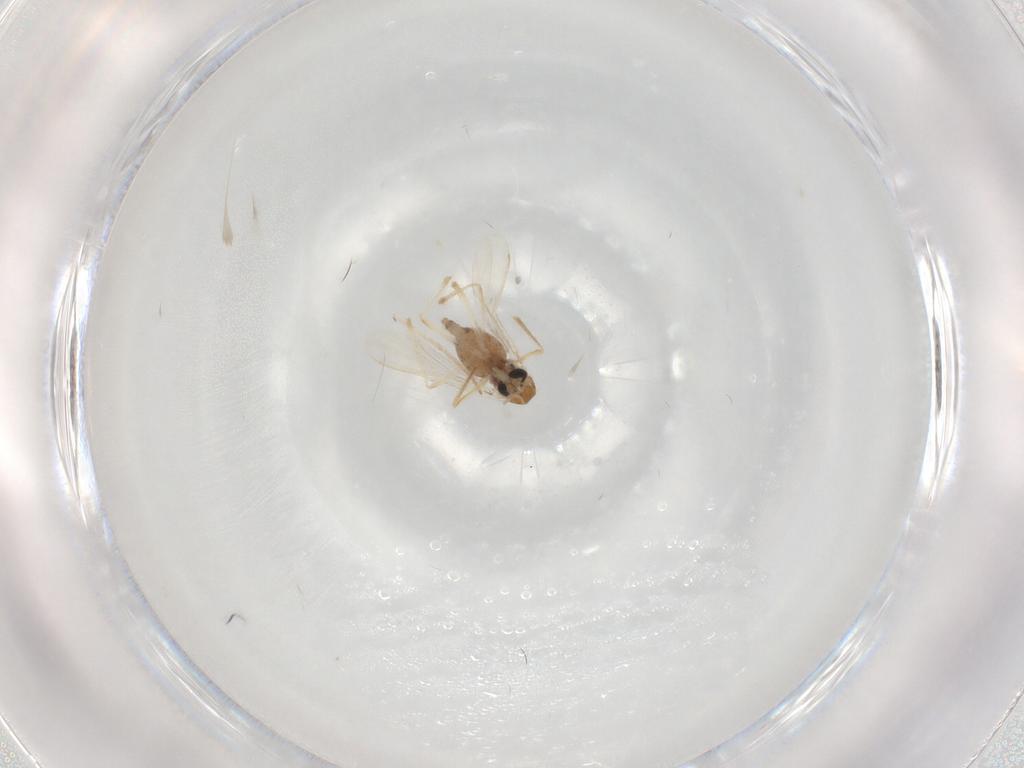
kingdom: Animalia
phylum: Arthropoda
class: Insecta
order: Diptera
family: Chironomidae
